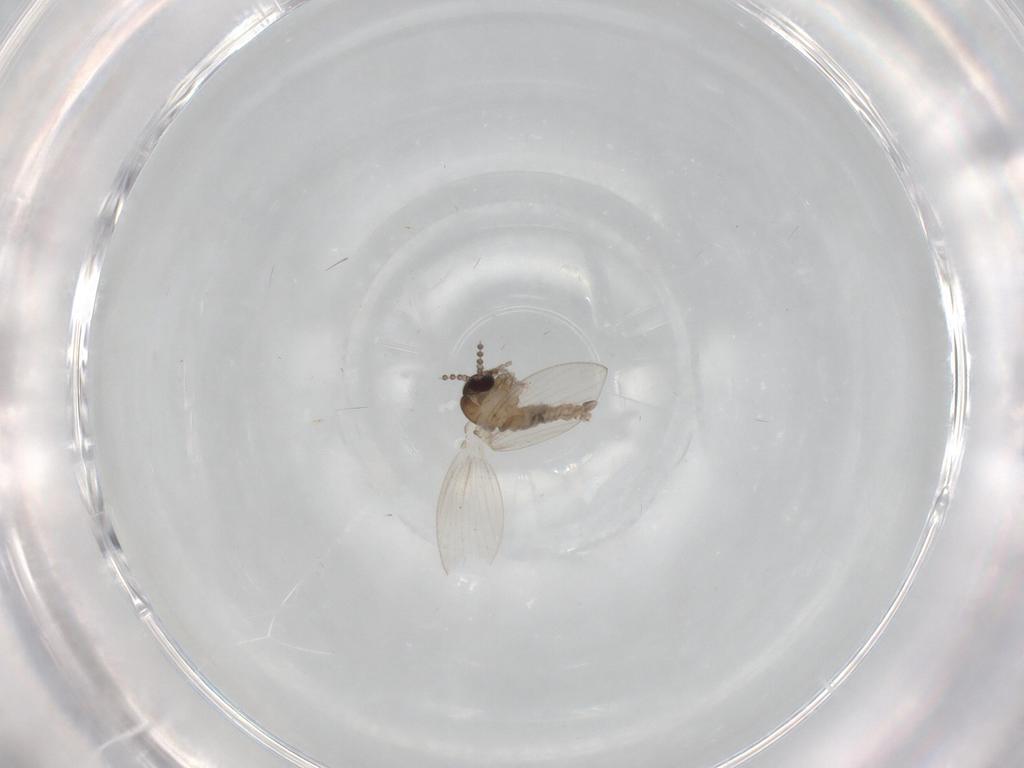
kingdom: Animalia
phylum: Arthropoda
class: Insecta
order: Diptera
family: Psychodidae
